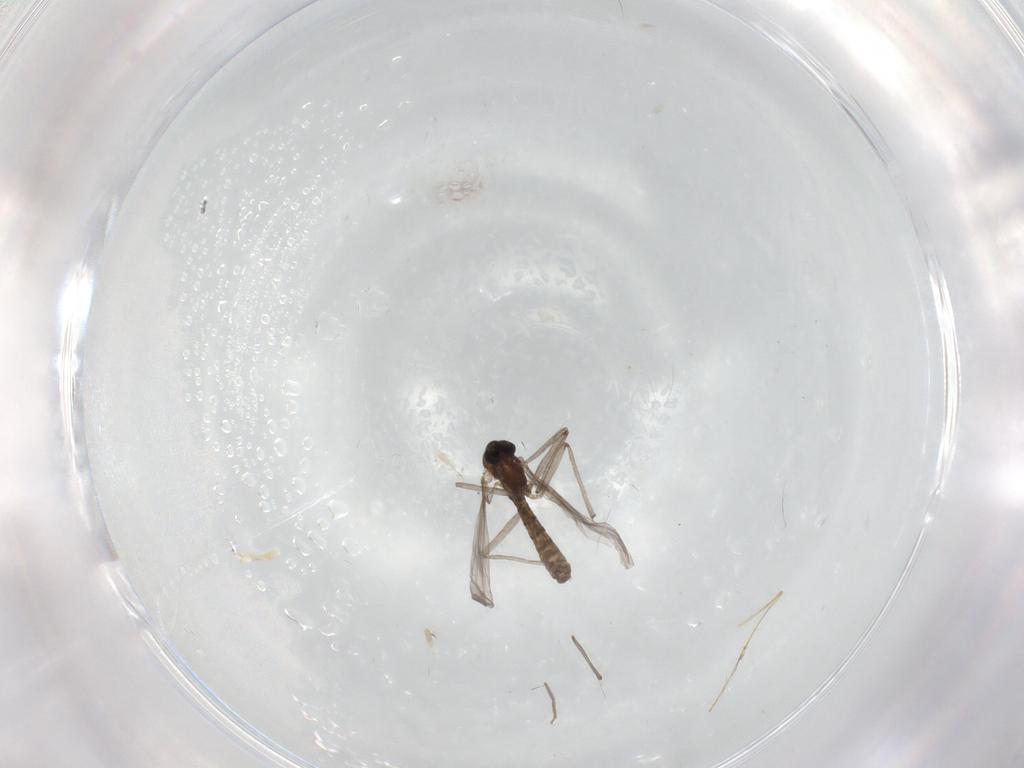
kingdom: Animalia
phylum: Arthropoda
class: Insecta
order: Diptera
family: Chironomidae
